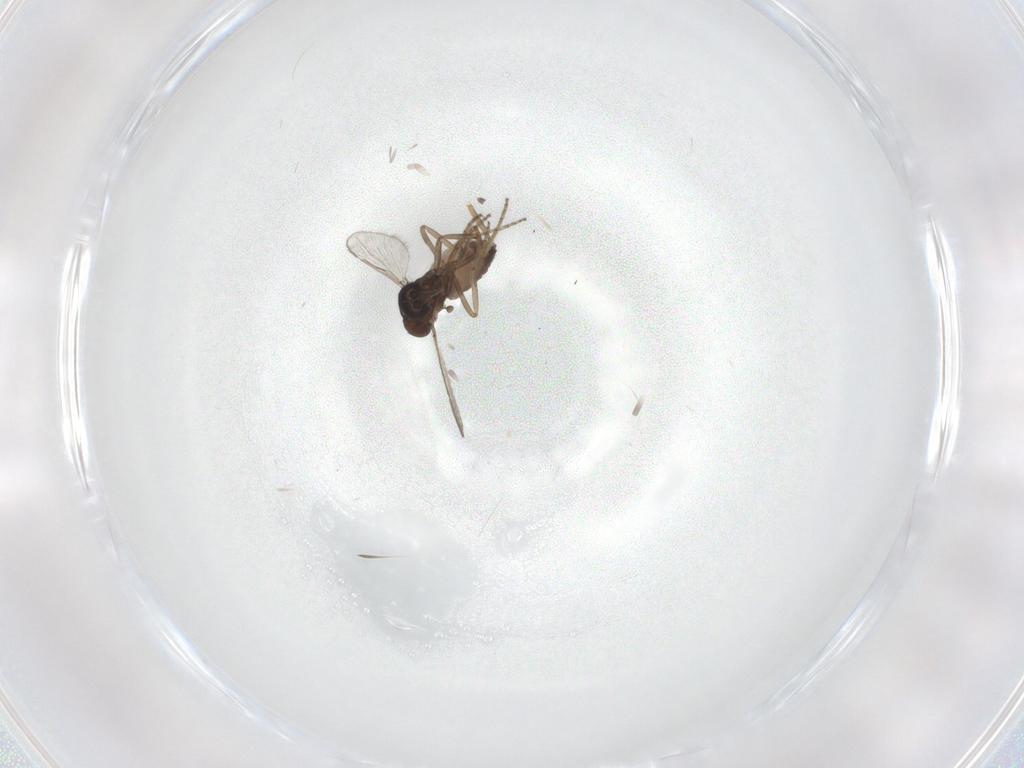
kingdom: Animalia
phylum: Arthropoda
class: Insecta
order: Diptera
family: Ceratopogonidae
